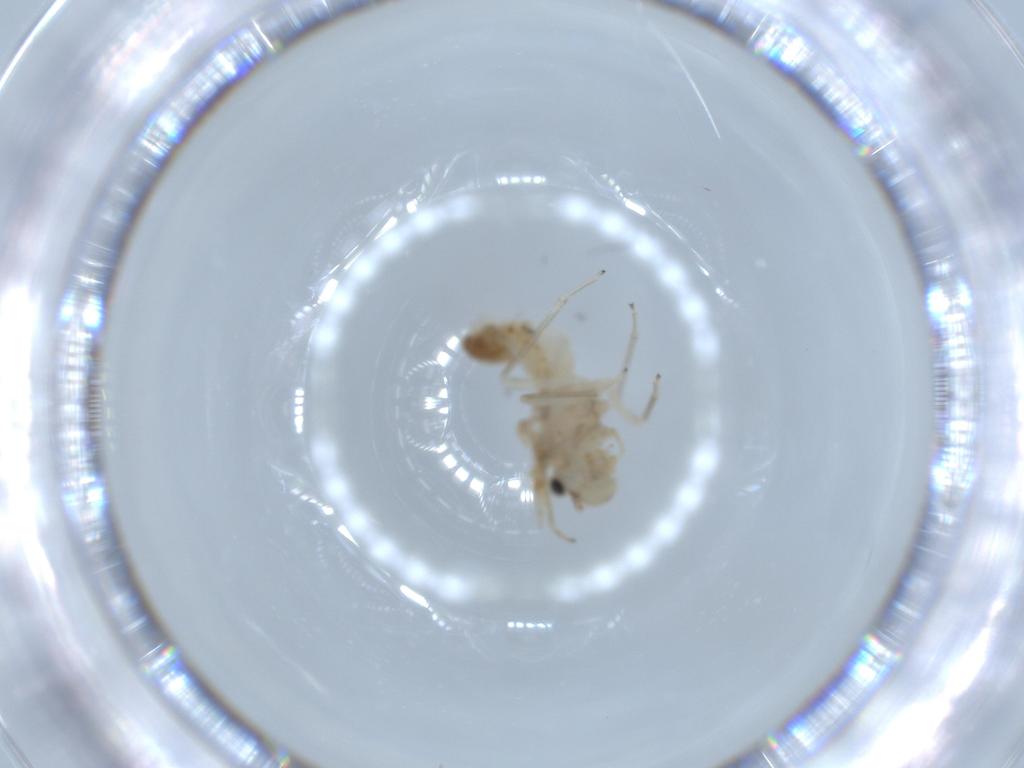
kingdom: Animalia
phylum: Arthropoda
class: Insecta
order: Psocodea
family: Caeciliusidae
